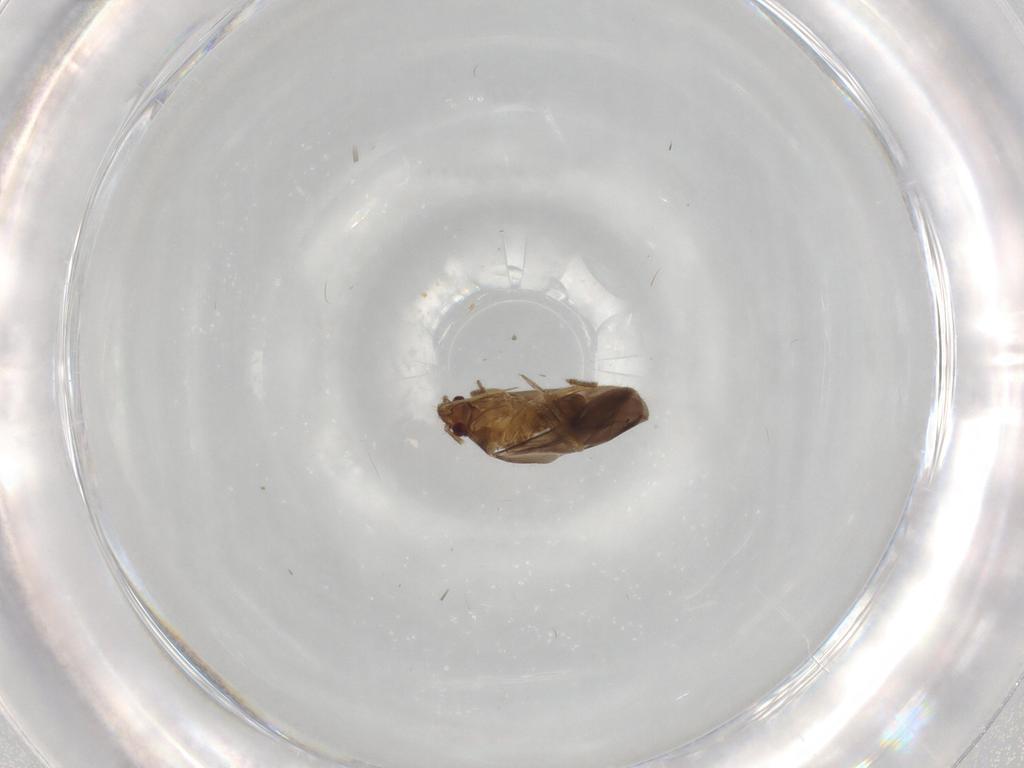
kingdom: Animalia
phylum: Arthropoda
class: Insecta
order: Hemiptera
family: Ceratocombidae
